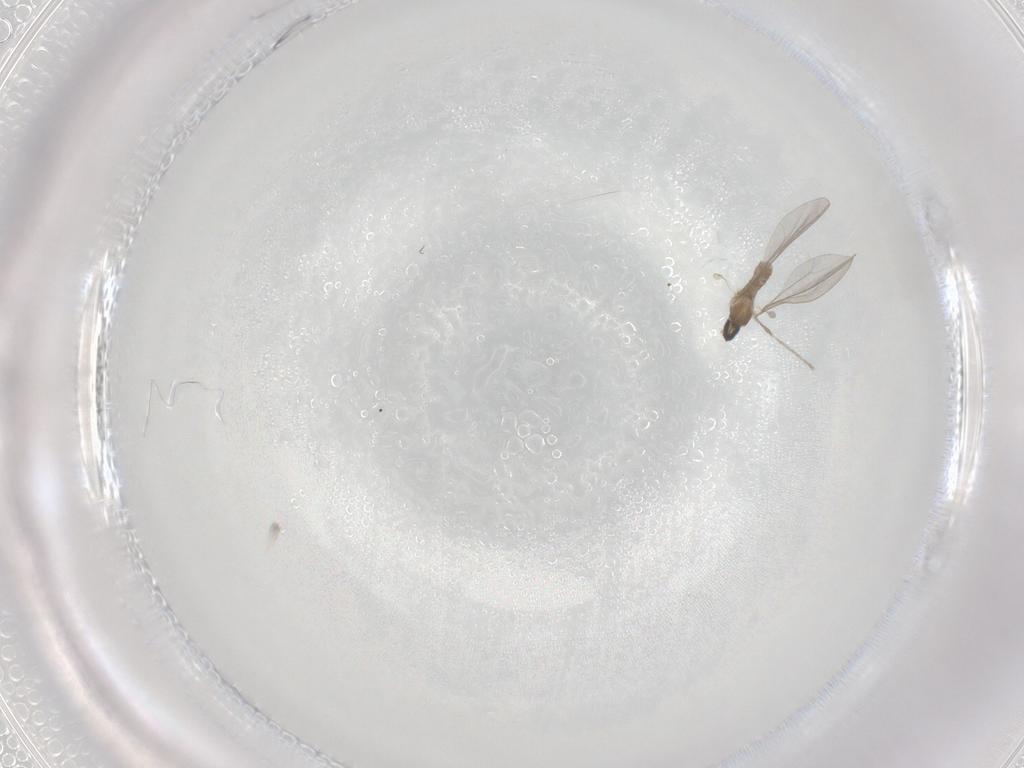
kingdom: Animalia
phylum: Arthropoda
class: Insecta
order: Diptera
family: Cecidomyiidae
